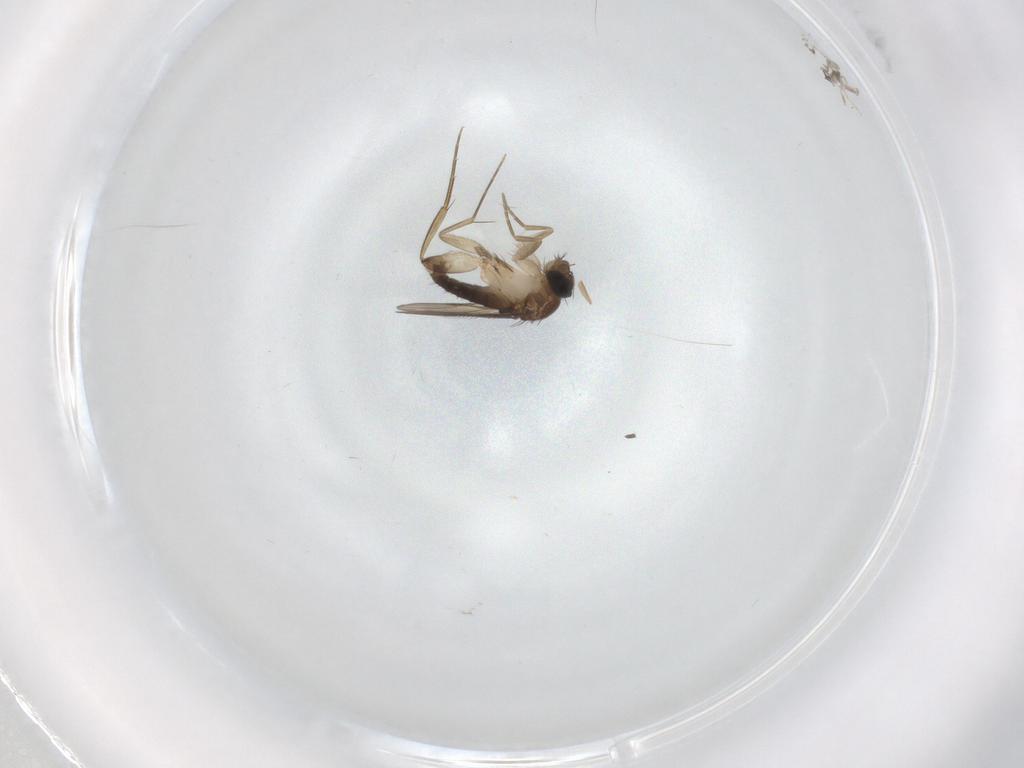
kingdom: Animalia
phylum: Arthropoda
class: Insecta
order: Diptera
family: Phoridae
